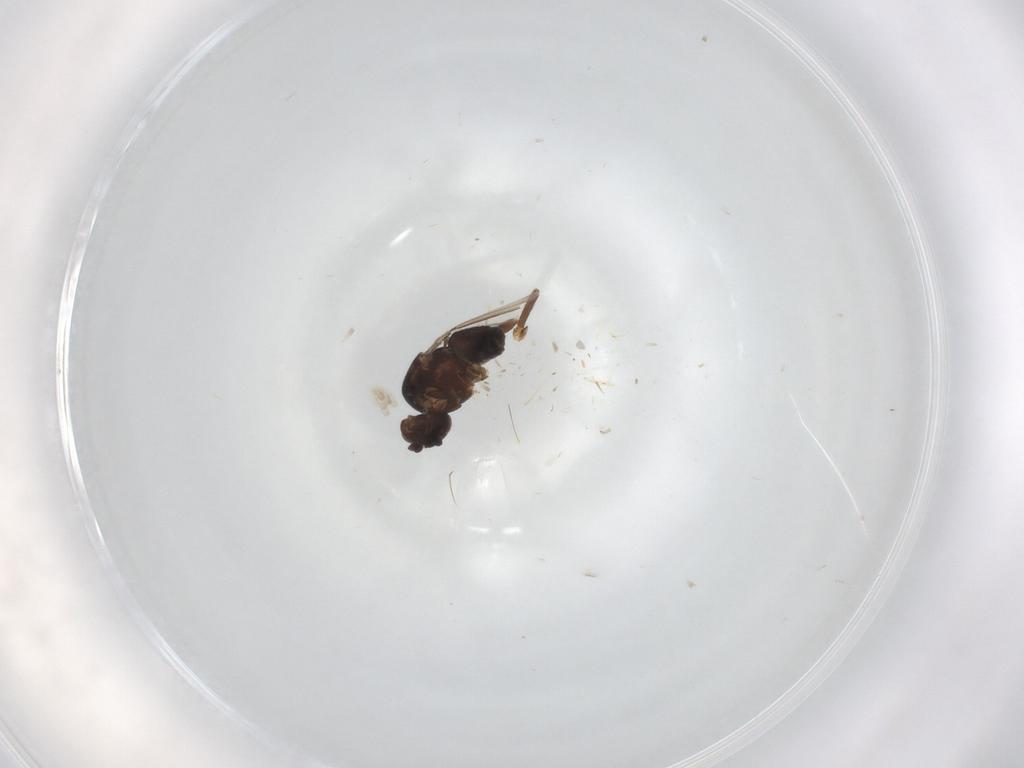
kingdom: Animalia
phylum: Arthropoda
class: Insecta
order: Diptera
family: Sphaeroceridae
